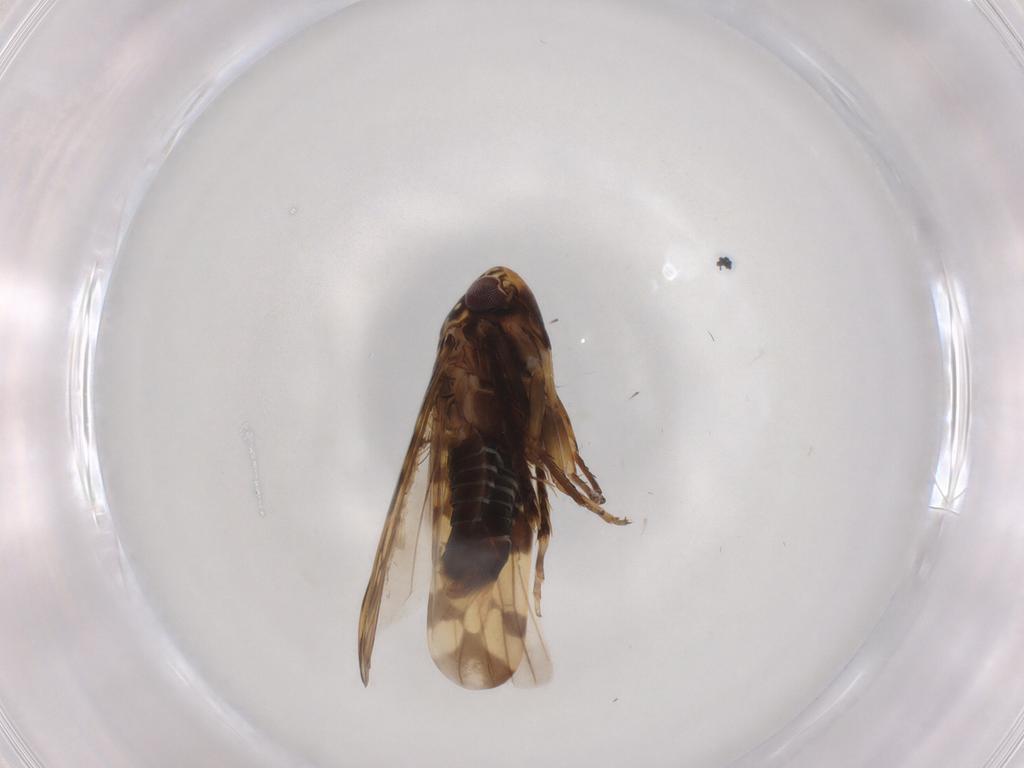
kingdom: Animalia
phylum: Arthropoda
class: Insecta
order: Hemiptera
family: Cicadellidae
